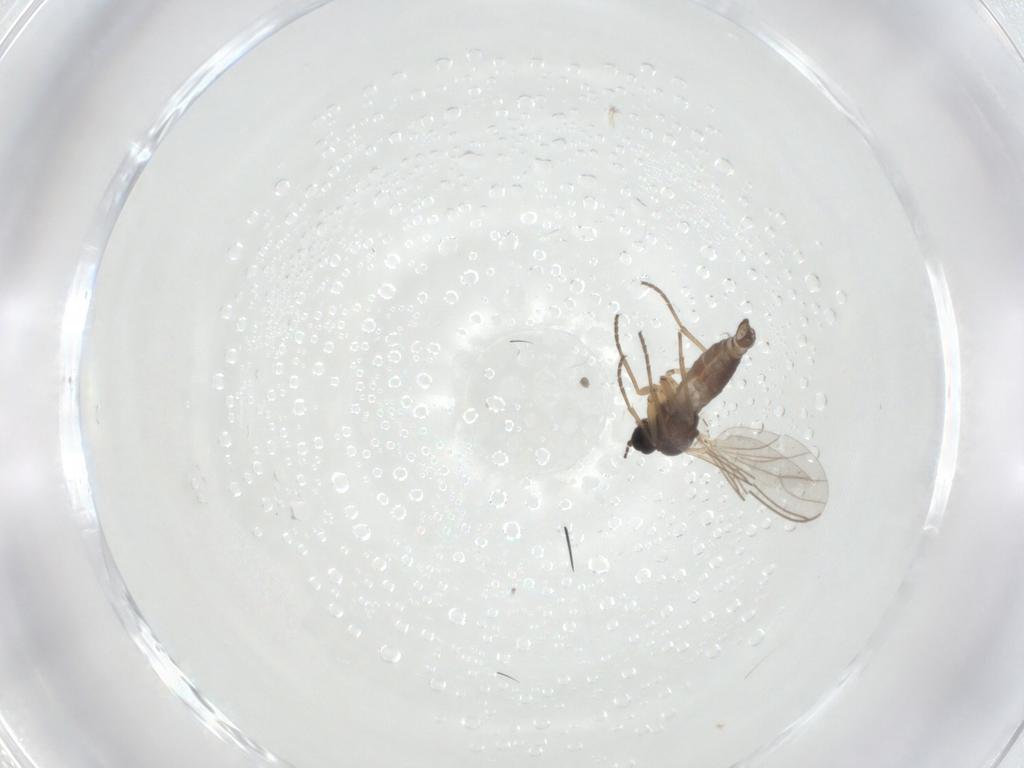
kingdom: Animalia
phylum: Arthropoda
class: Insecta
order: Diptera
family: Sciaridae
